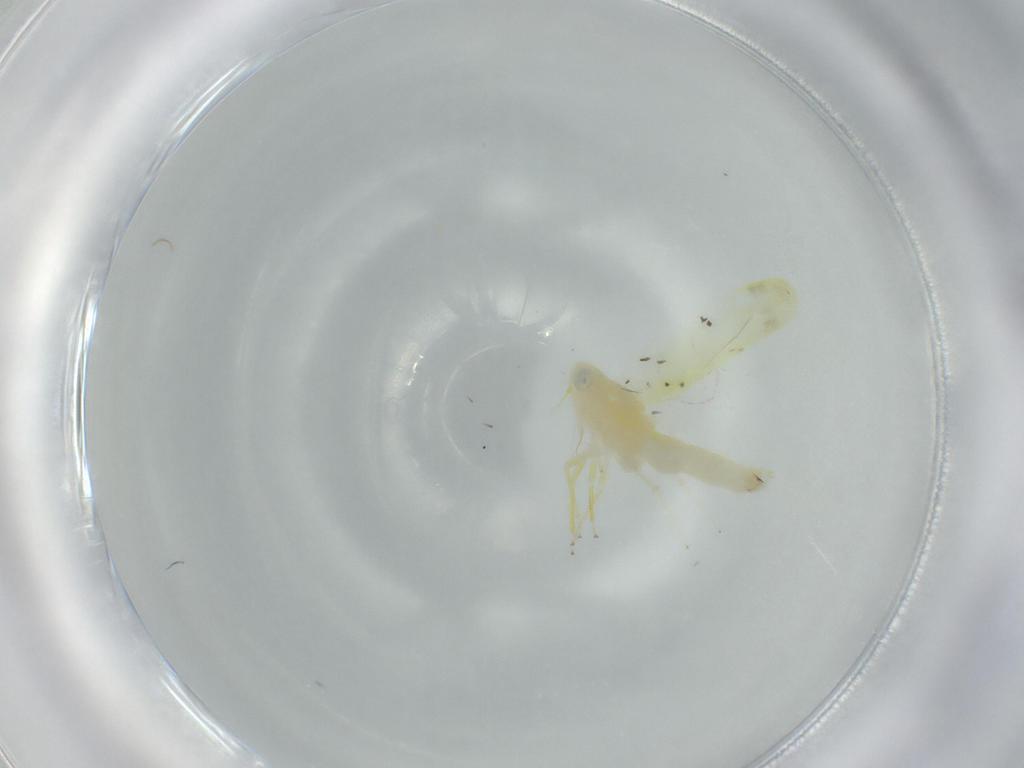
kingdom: Animalia
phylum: Arthropoda
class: Insecta
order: Hemiptera
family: Cicadellidae
